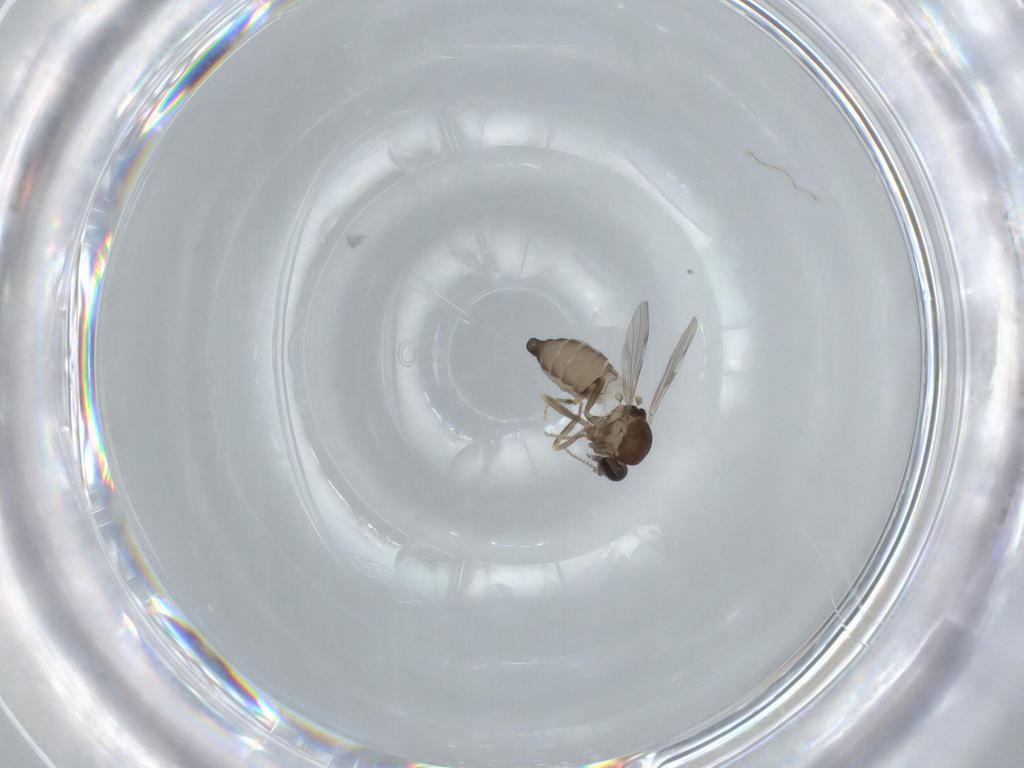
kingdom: Animalia
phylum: Arthropoda
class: Insecta
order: Diptera
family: Ceratopogonidae
